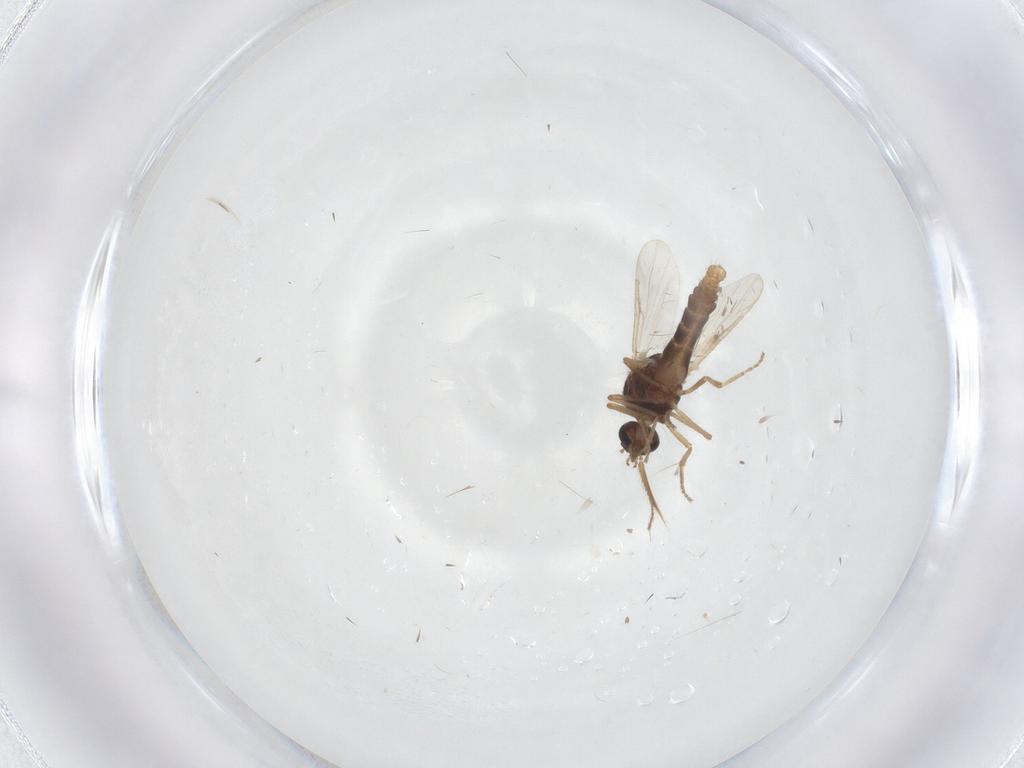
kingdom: Animalia
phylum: Arthropoda
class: Insecta
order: Diptera
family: Ceratopogonidae
